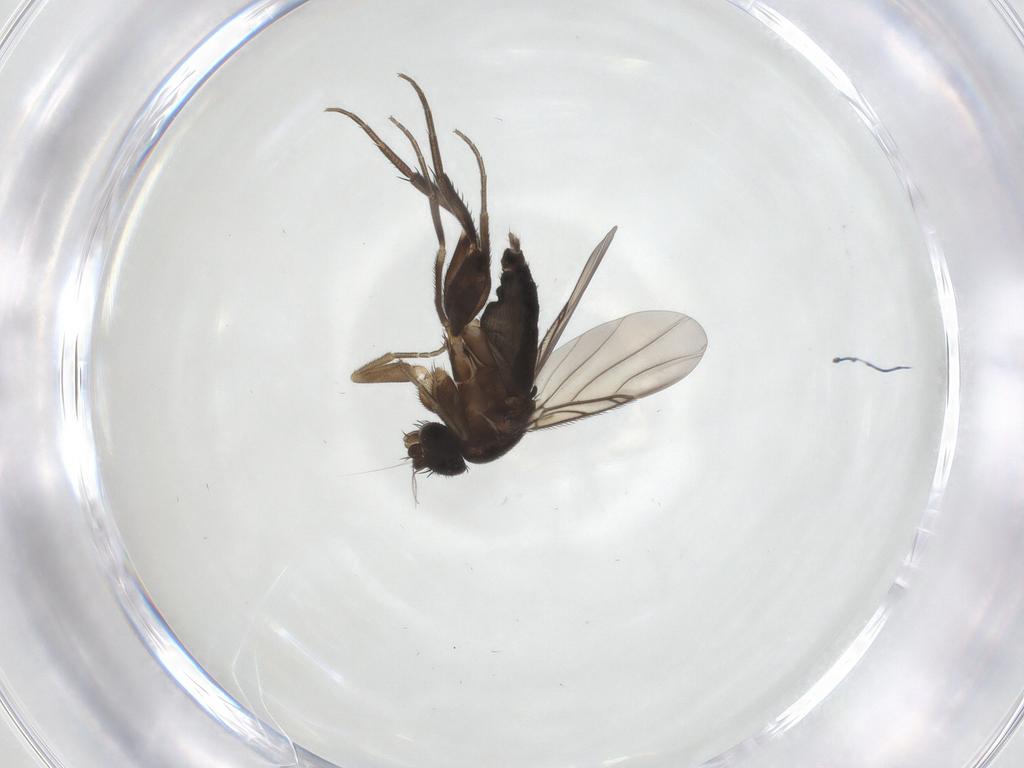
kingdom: Animalia
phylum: Arthropoda
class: Insecta
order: Diptera
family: Phoridae
